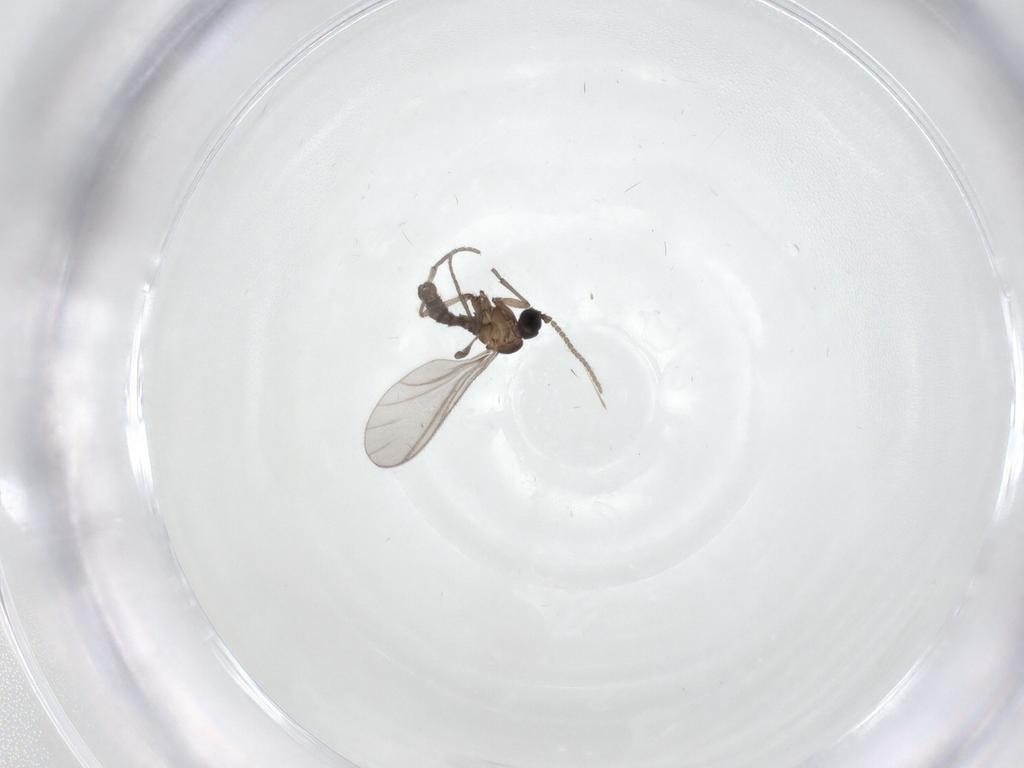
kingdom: Animalia
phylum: Arthropoda
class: Insecta
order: Diptera
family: Sciaridae
